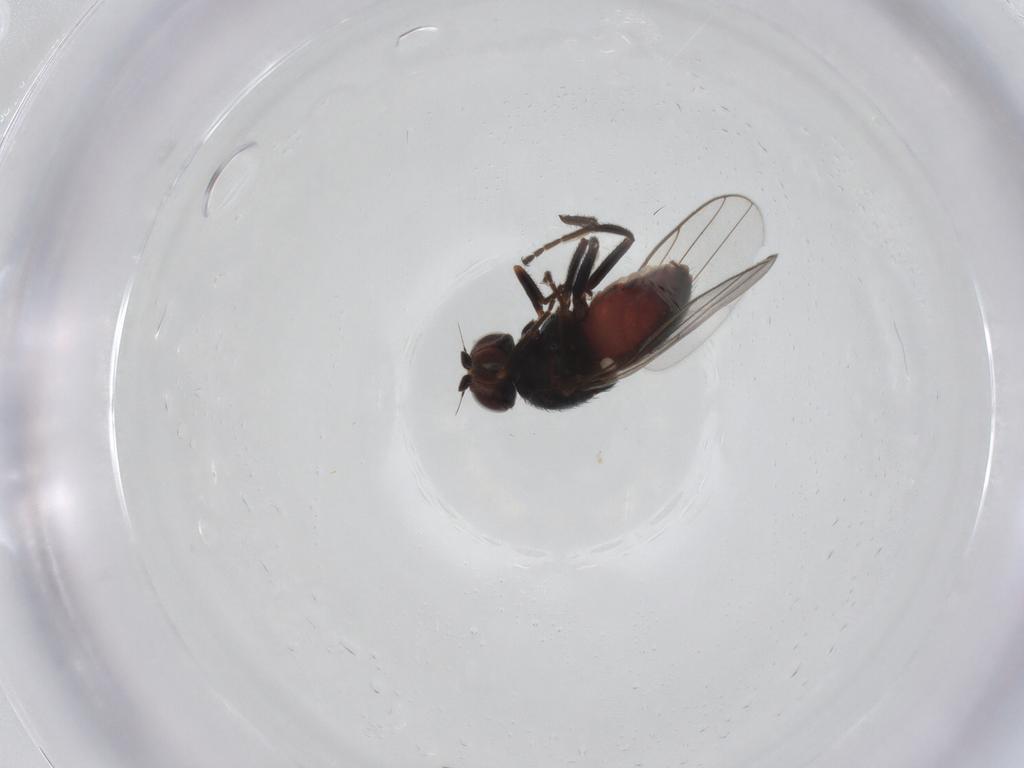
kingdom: Animalia
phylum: Arthropoda
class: Insecta
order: Diptera
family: Chloropidae
